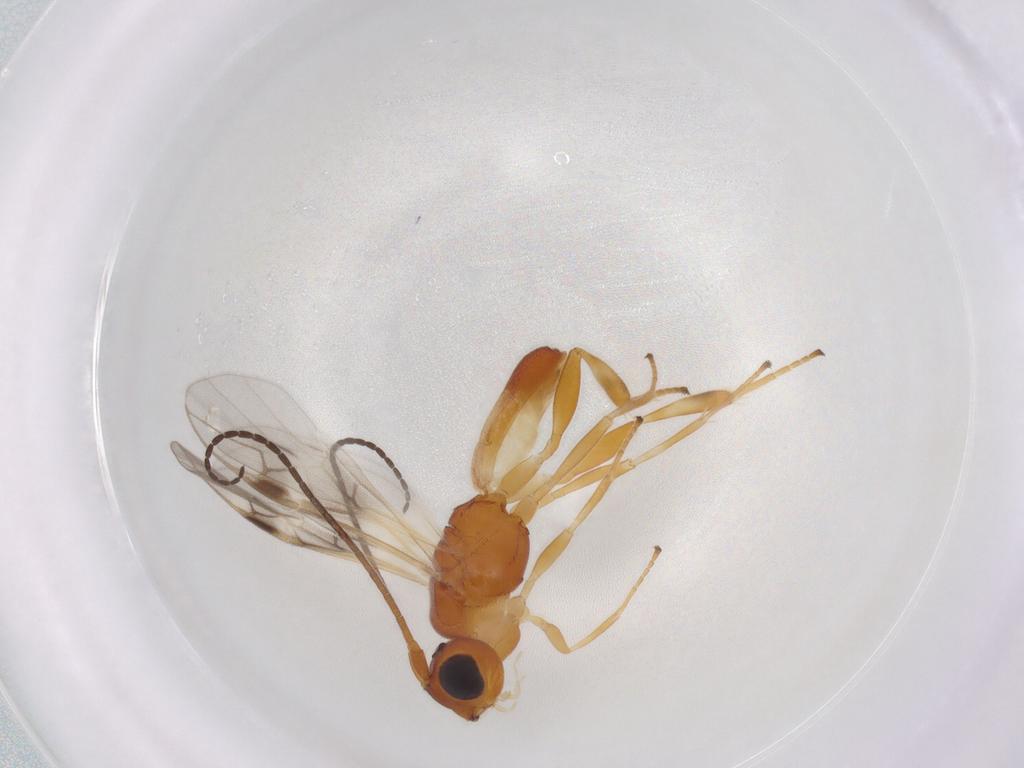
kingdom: Animalia
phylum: Arthropoda
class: Insecta
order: Hymenoptera
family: Braconidae
